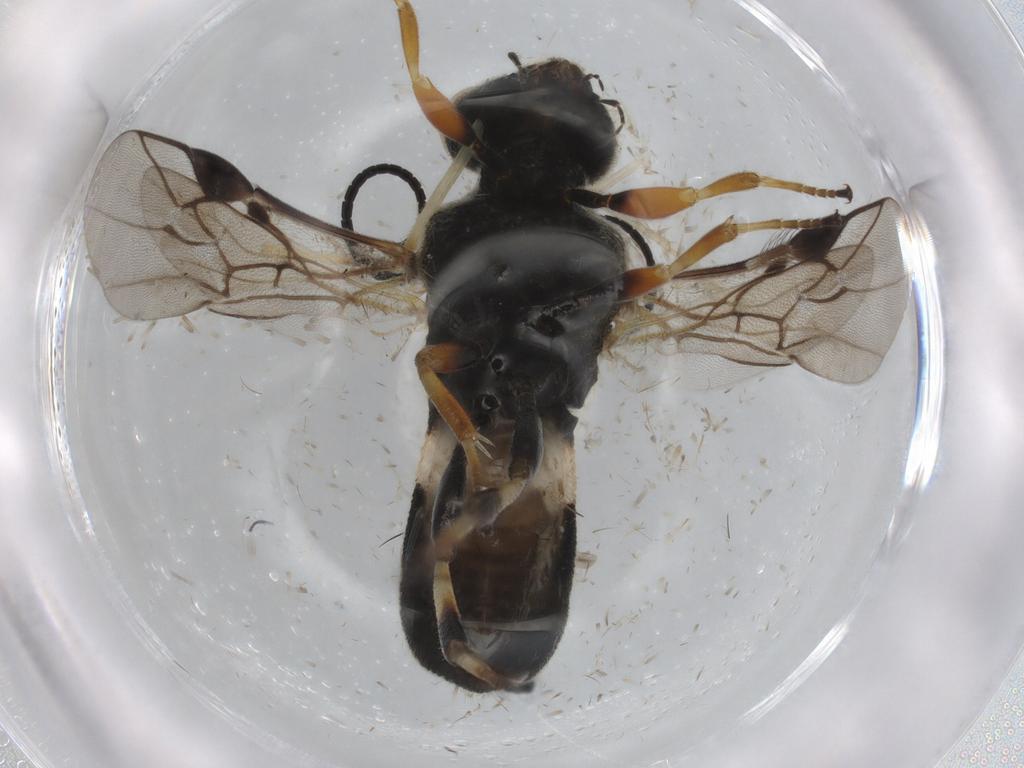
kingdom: Animalia
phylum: Arthropoda
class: Insecta
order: Hymenoptera
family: Braconidae
